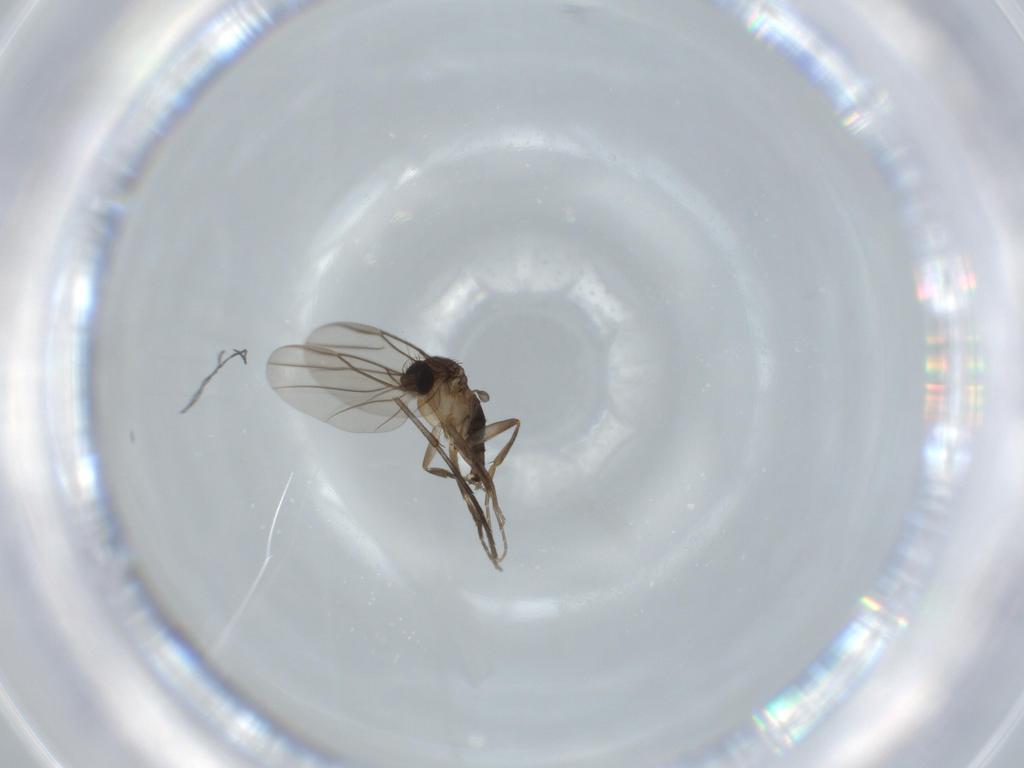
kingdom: Animalia
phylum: Arthropoda
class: Insecta
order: Diptera
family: Phoridae
